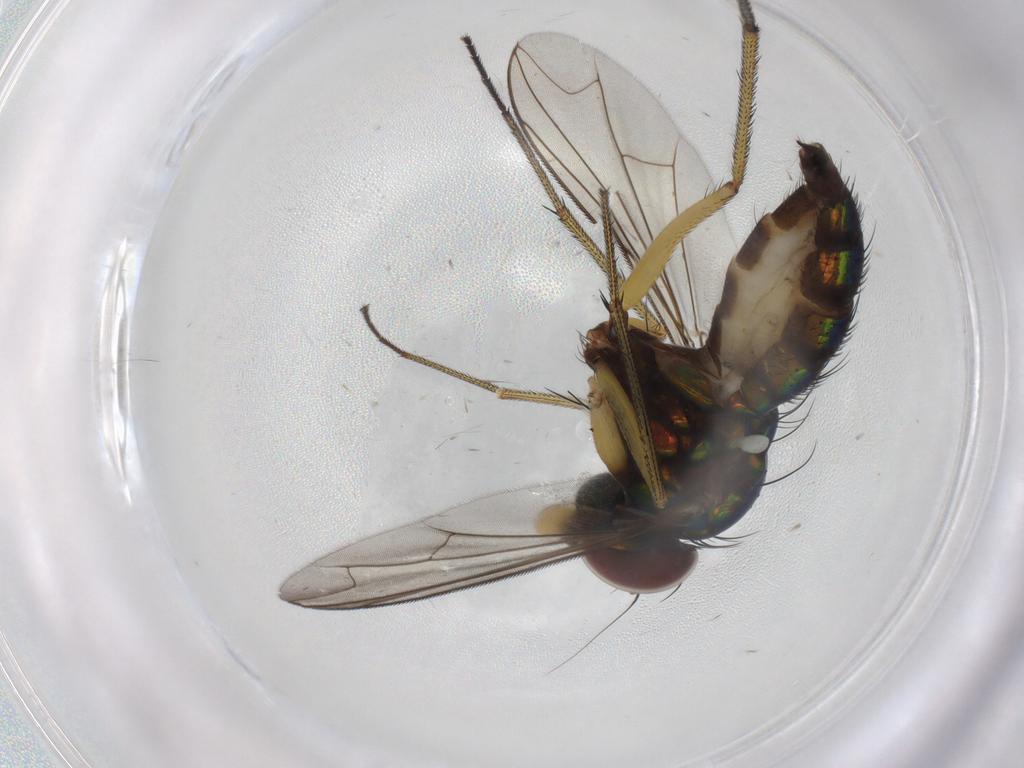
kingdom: Animalia
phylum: Arthropoda
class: Insecta
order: Diptera
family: Dolichopodidae
